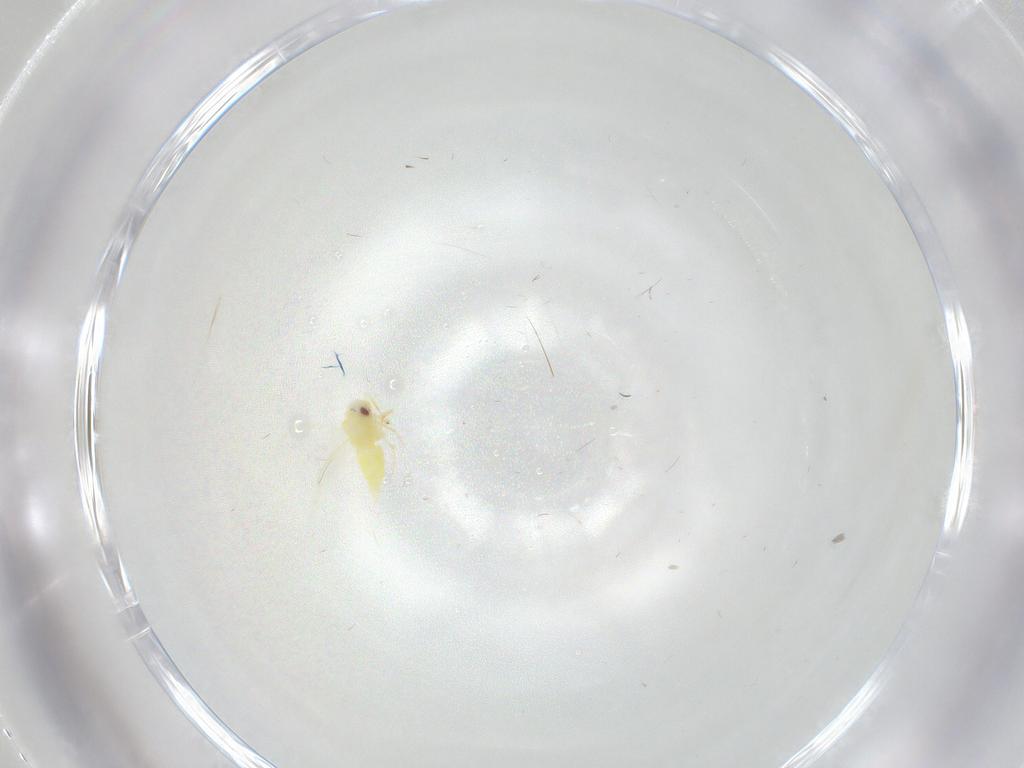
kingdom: Animalia
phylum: Arthropoda
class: Insecta
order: Hemiptera
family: Aleyrodidae
